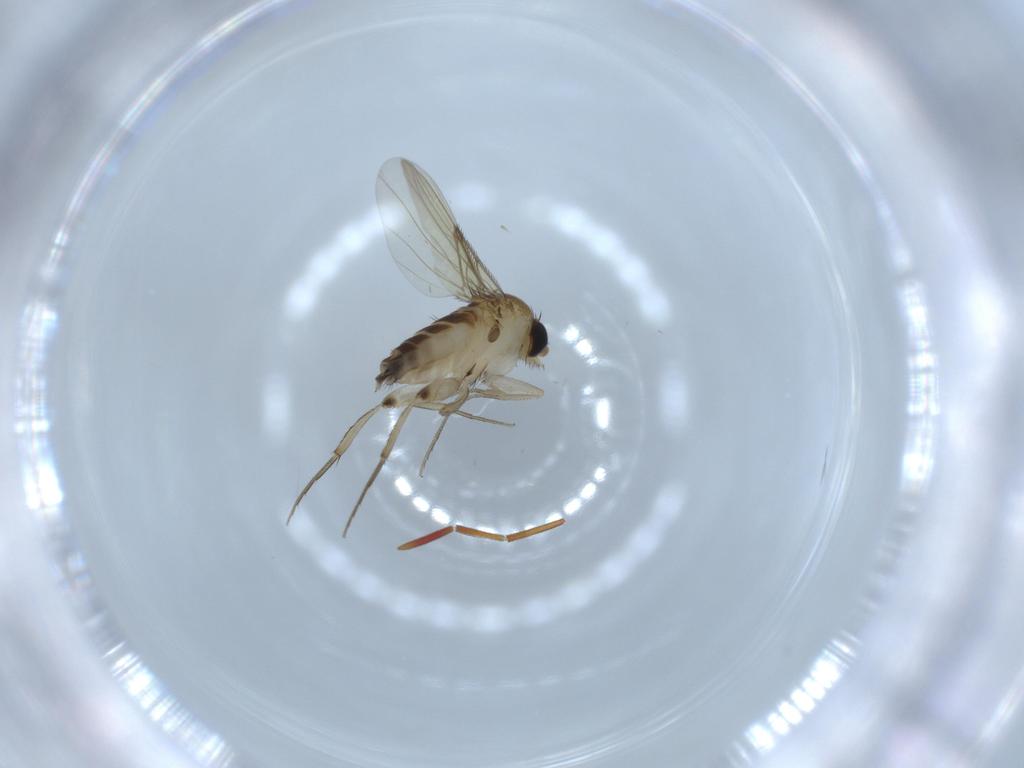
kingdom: Animalia
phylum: Arthropoda
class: Insecta
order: Diptera
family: Phoridae
